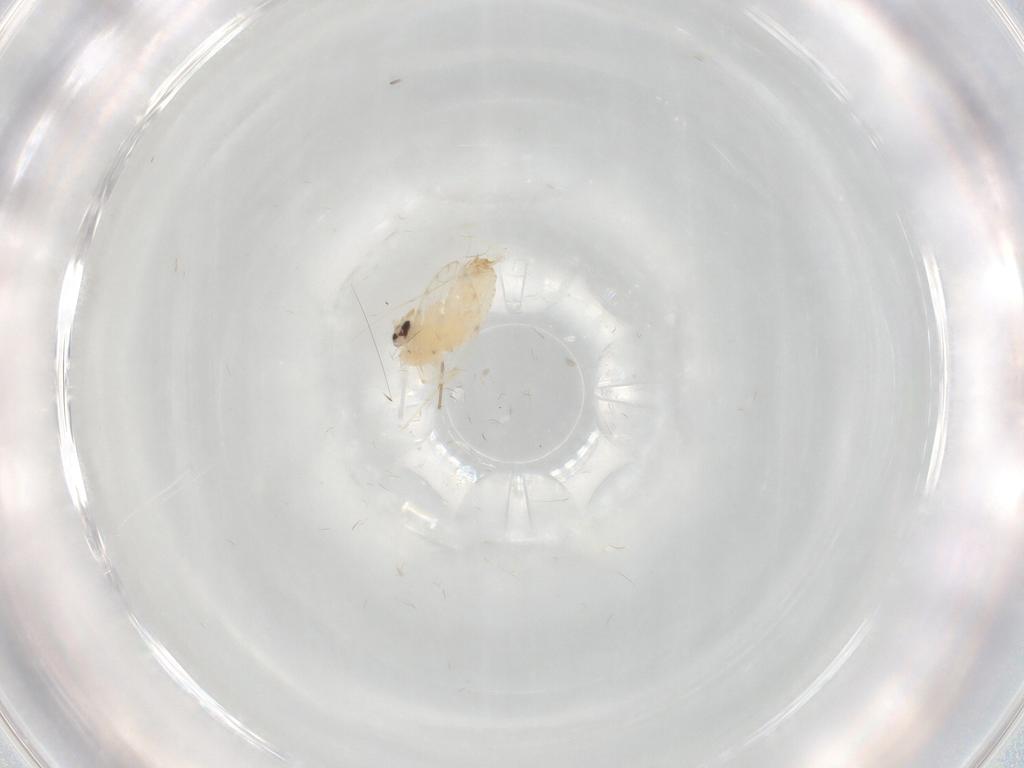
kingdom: Animalia
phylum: Arthropoda
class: Insecta
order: Diptera
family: Psychodidae
